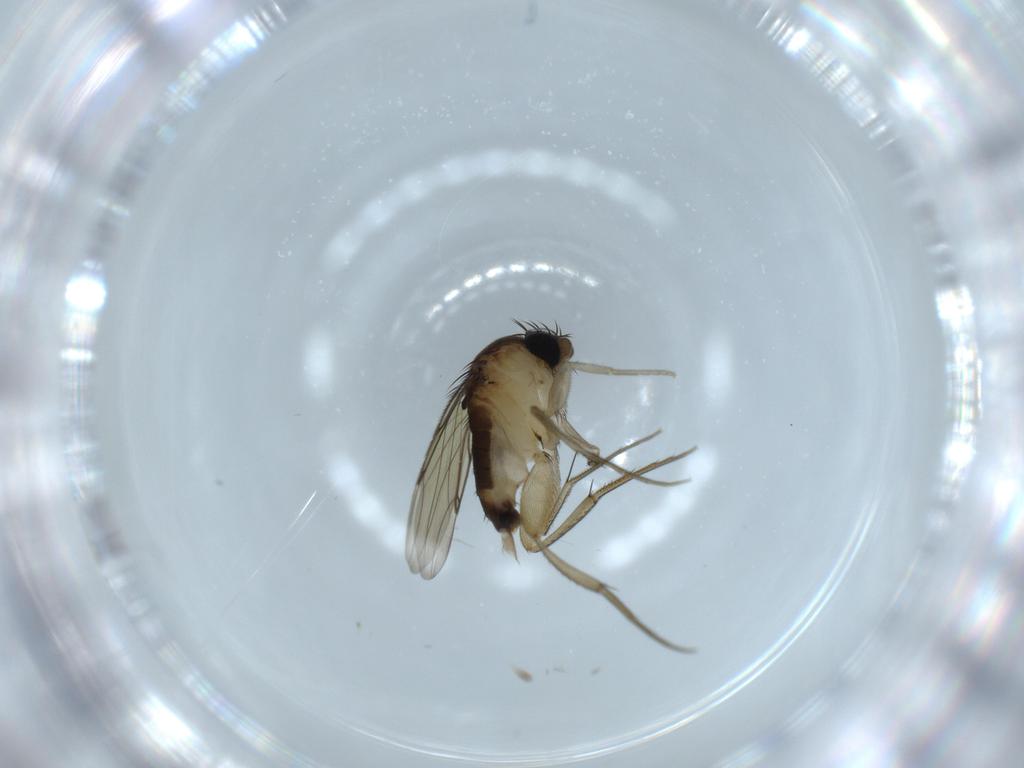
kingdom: Animalia
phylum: Arthropoda
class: Insecta
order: Diptera
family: Phoridae
